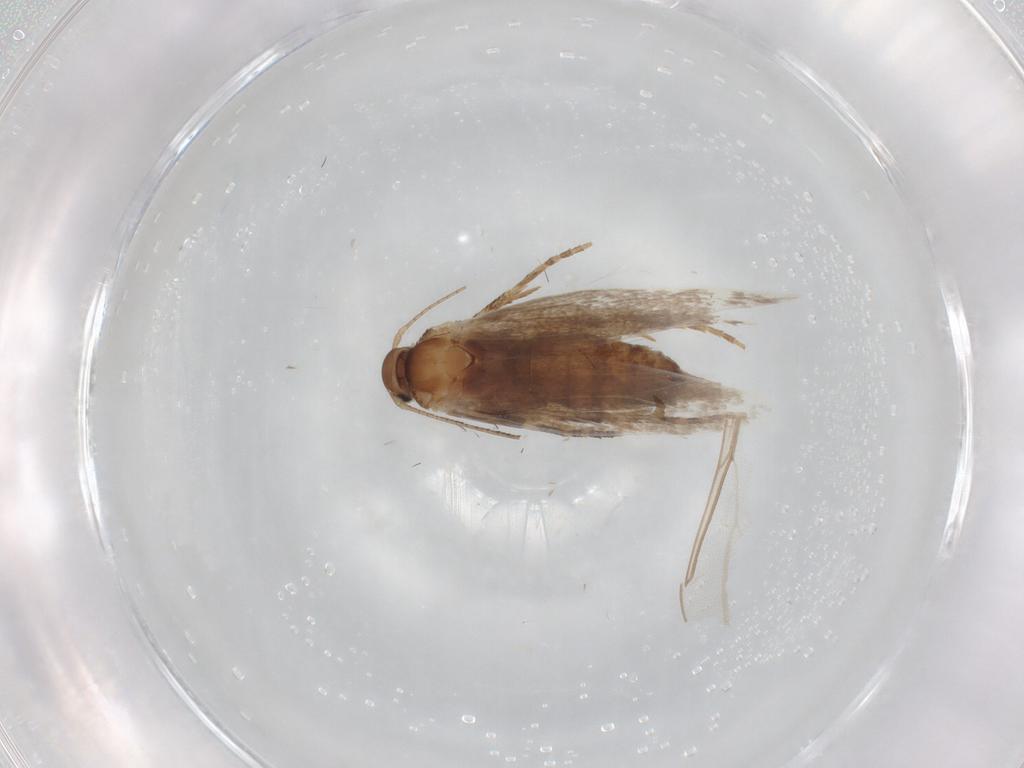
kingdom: Animalia
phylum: Arthropoda
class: Insecta
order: Lepidoptera
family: Elachistidae
